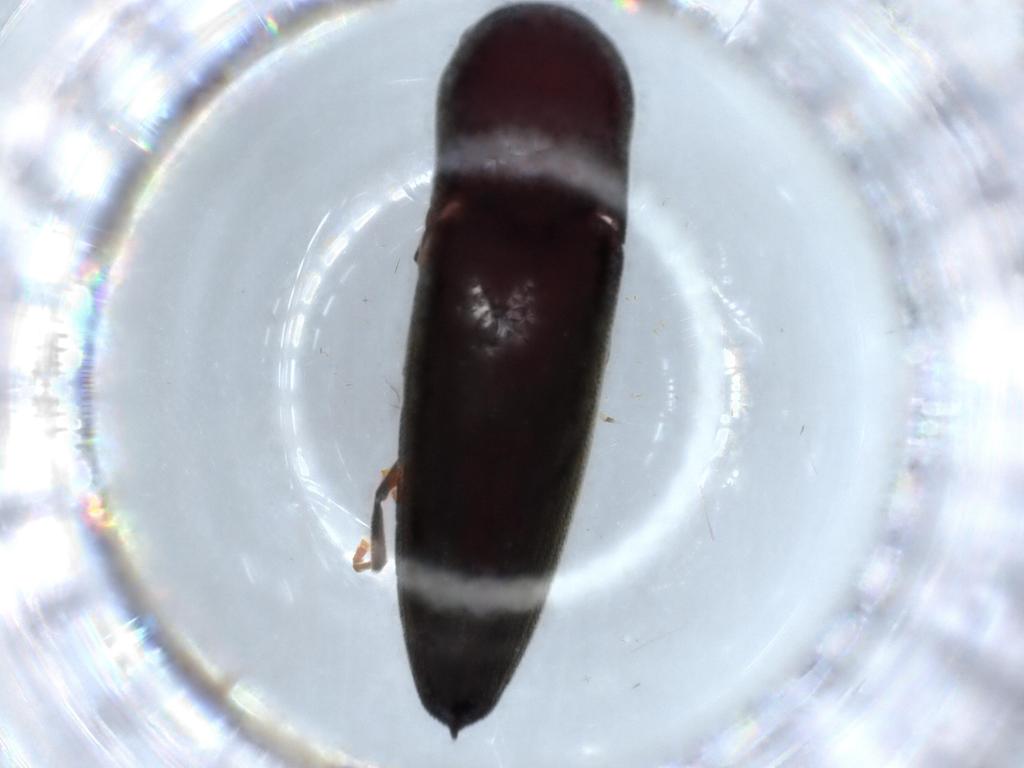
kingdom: Animalia
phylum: Arthropoda
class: Insecta
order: Coleoptera
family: Eucnemidae
